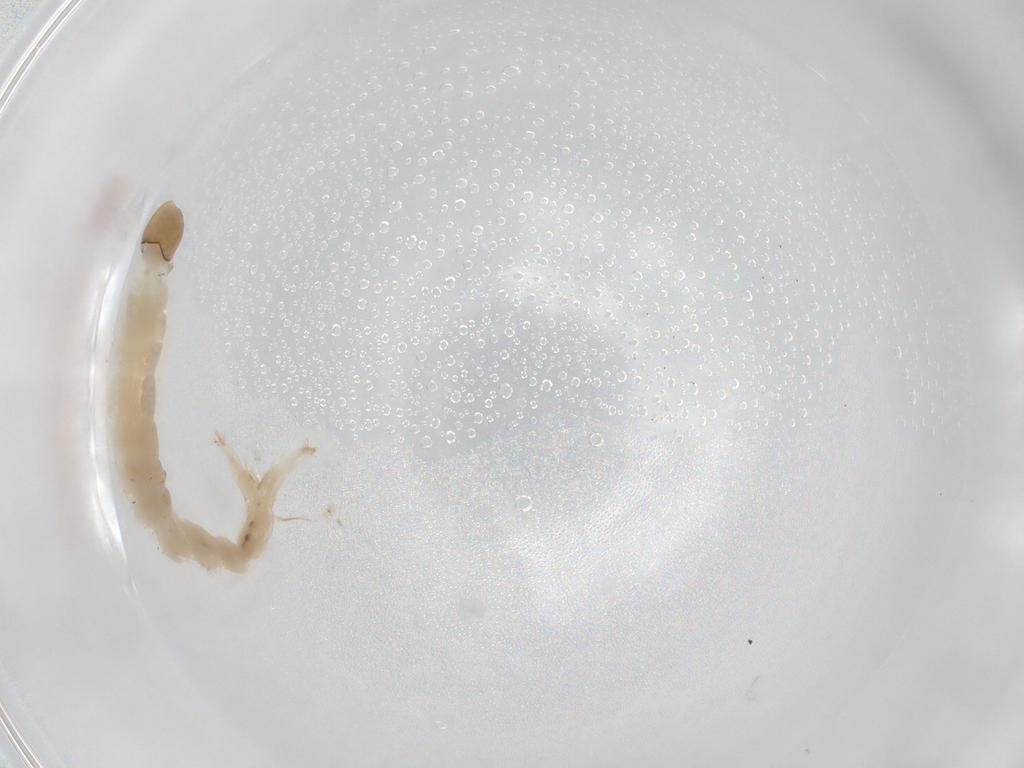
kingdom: Animalia
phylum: Arthropoda
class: Insecta
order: Diptera
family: Chironomidae
